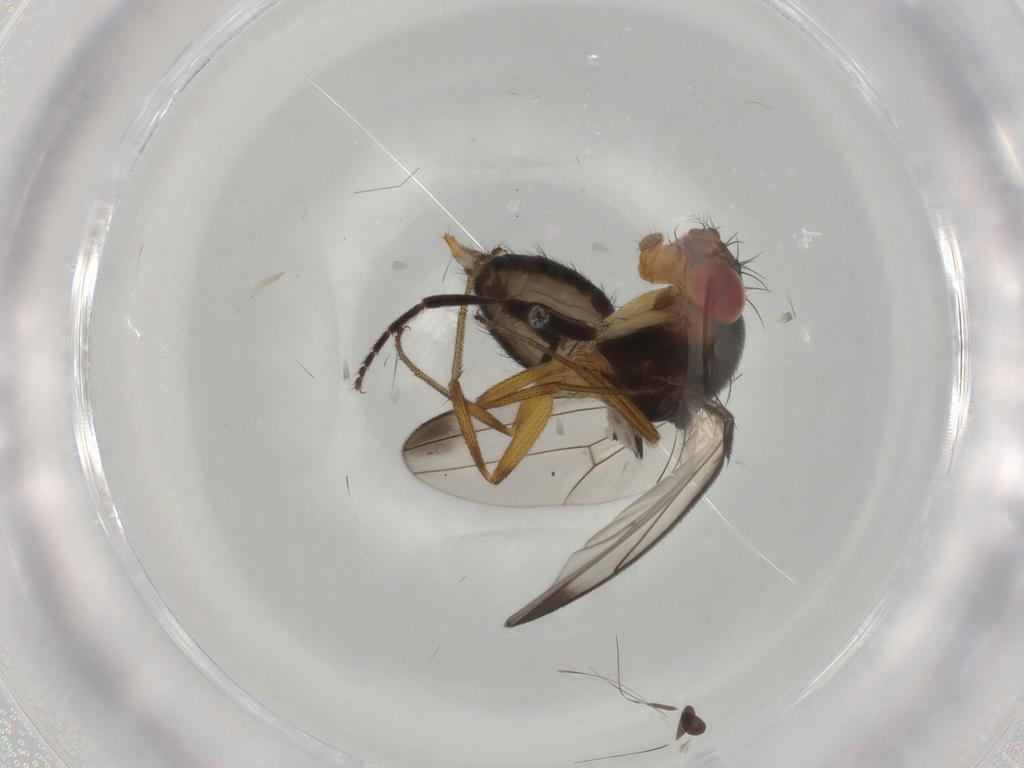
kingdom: Animalia
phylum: Arthropoda
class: Insecta
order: Diptera
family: Drosophilidae
